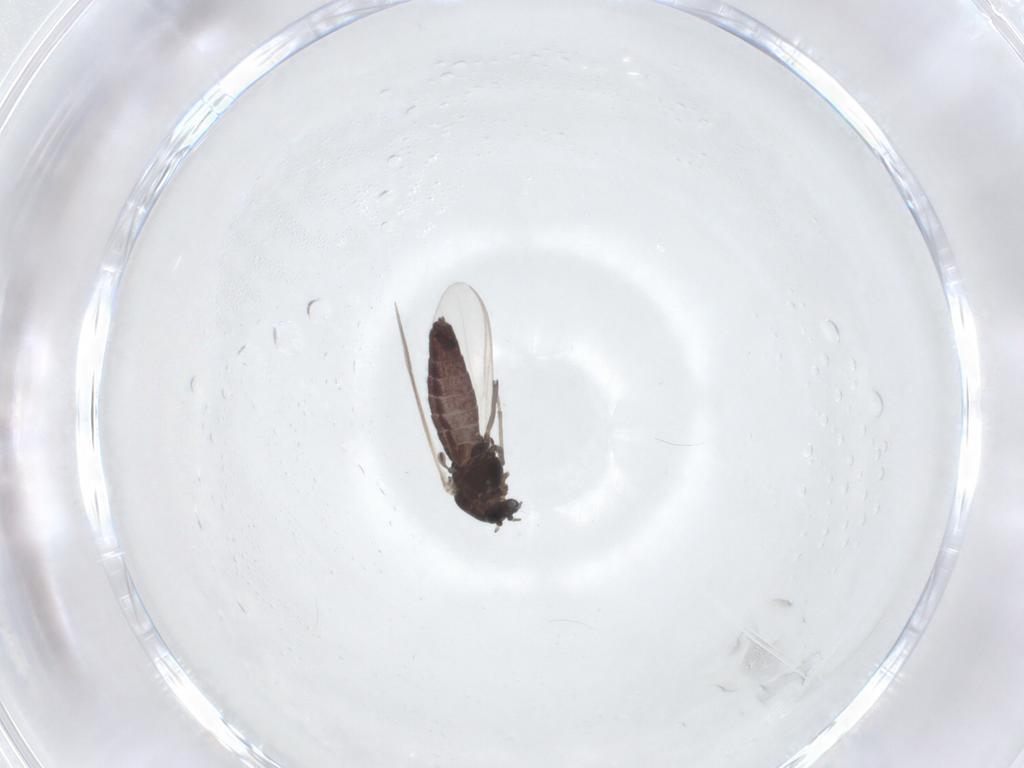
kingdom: Animalia
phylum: Arthropoda
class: Insecta
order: Diptera
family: Chironomidae
